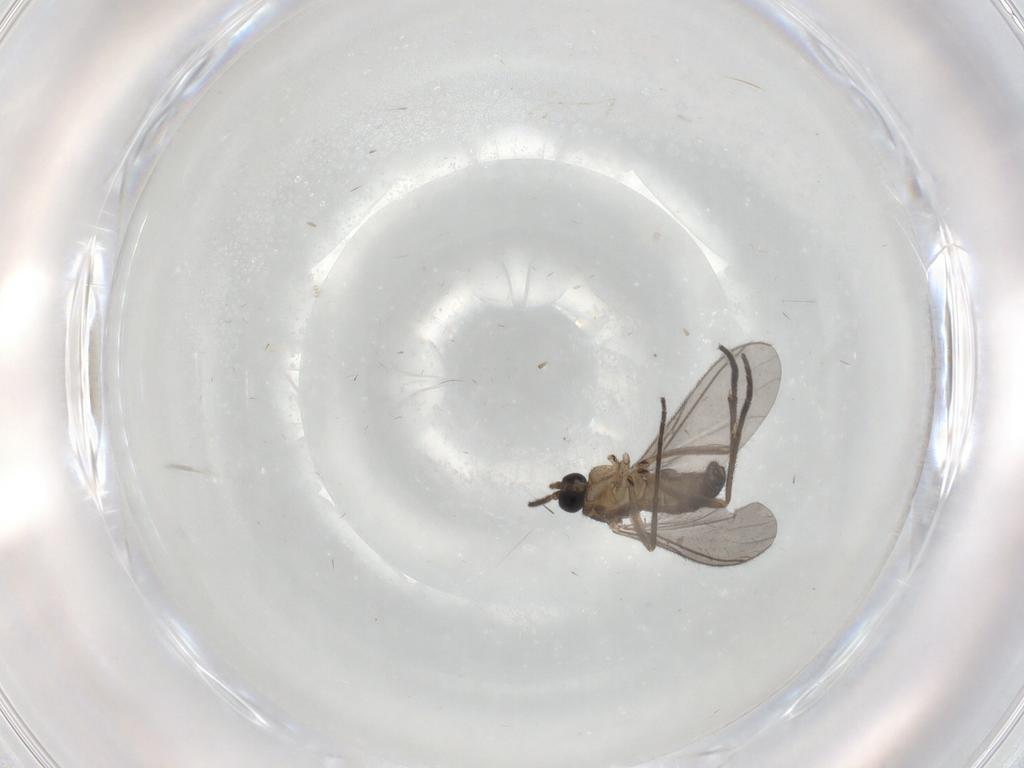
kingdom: Animalia
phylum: Arthropoda
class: Insecta
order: Diptera
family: Sciaridae
